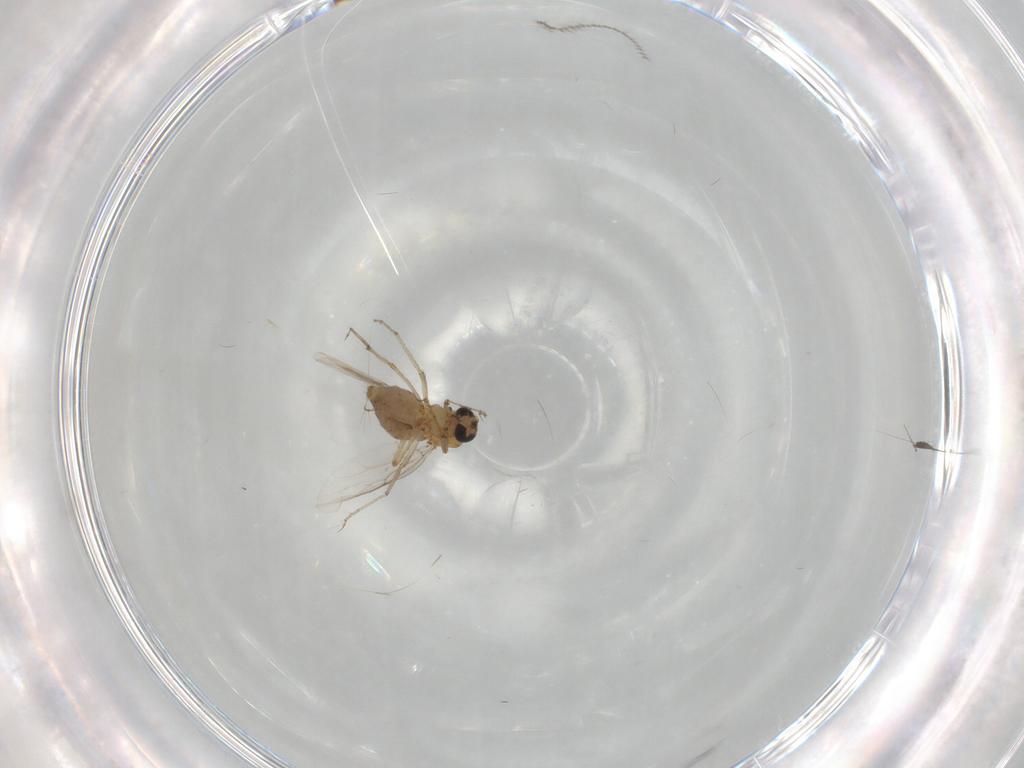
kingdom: Animalia
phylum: Arthropoda
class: Insecta
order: Diptera
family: Ceratopogonidae
